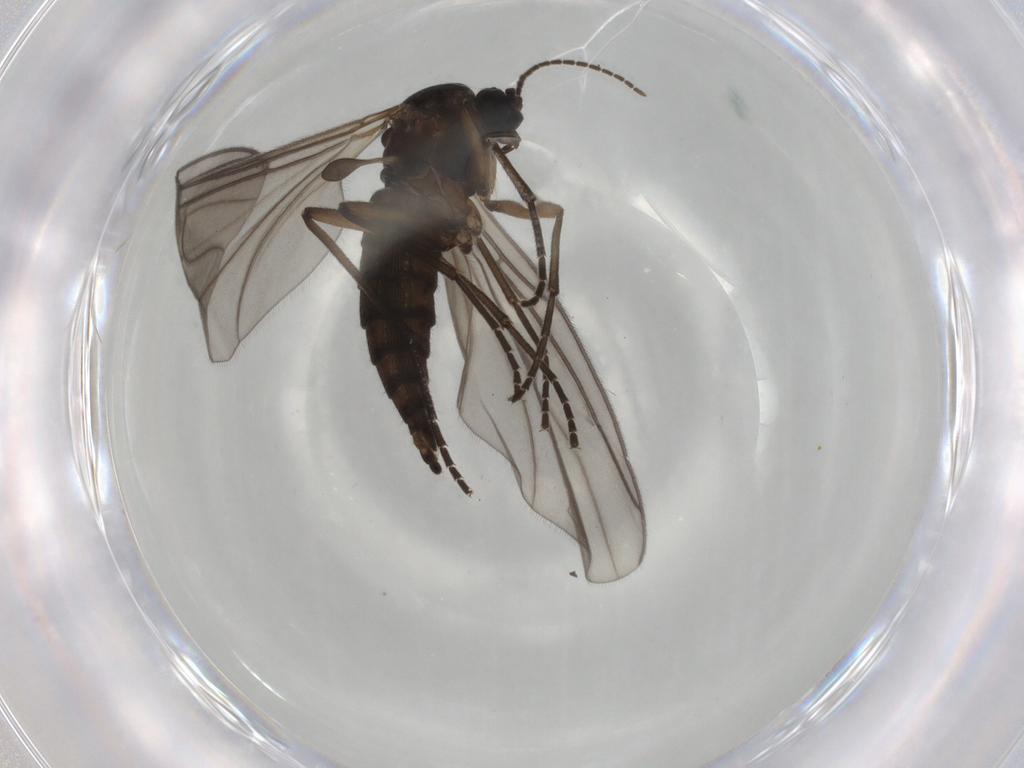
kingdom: Animalia
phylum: Arthropoda
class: Insecta
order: Diptera
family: Sciaridae
